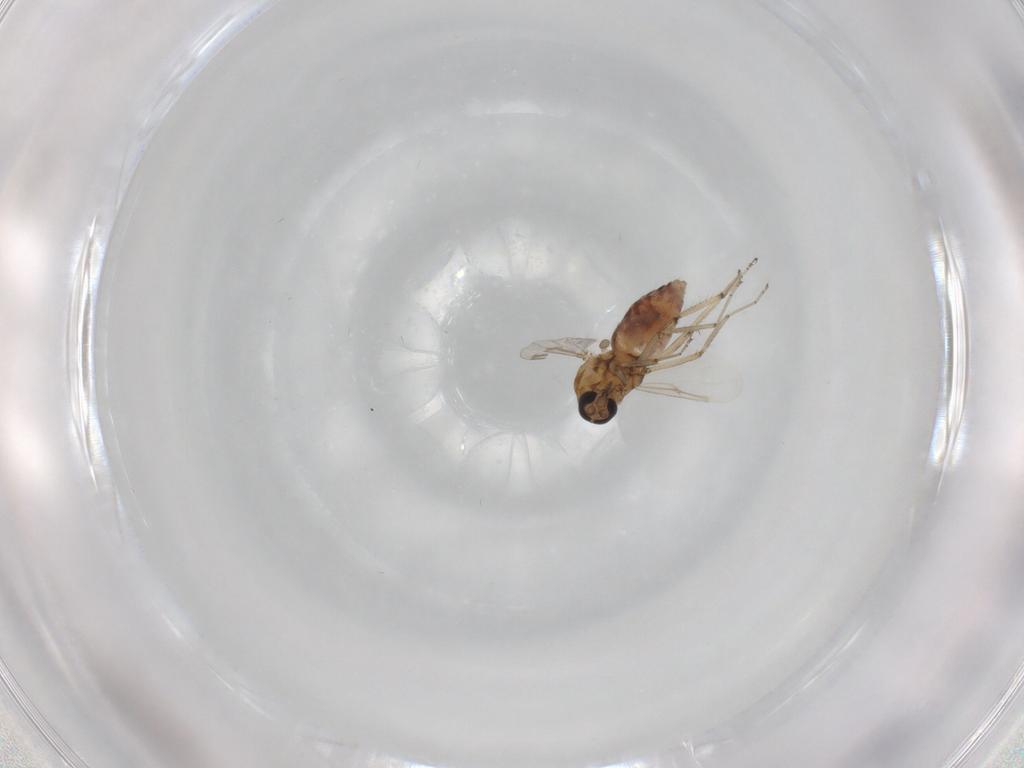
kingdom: Animalia
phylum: Arthropoda
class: Insecta
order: Diptera
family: Ceratopogonidae
